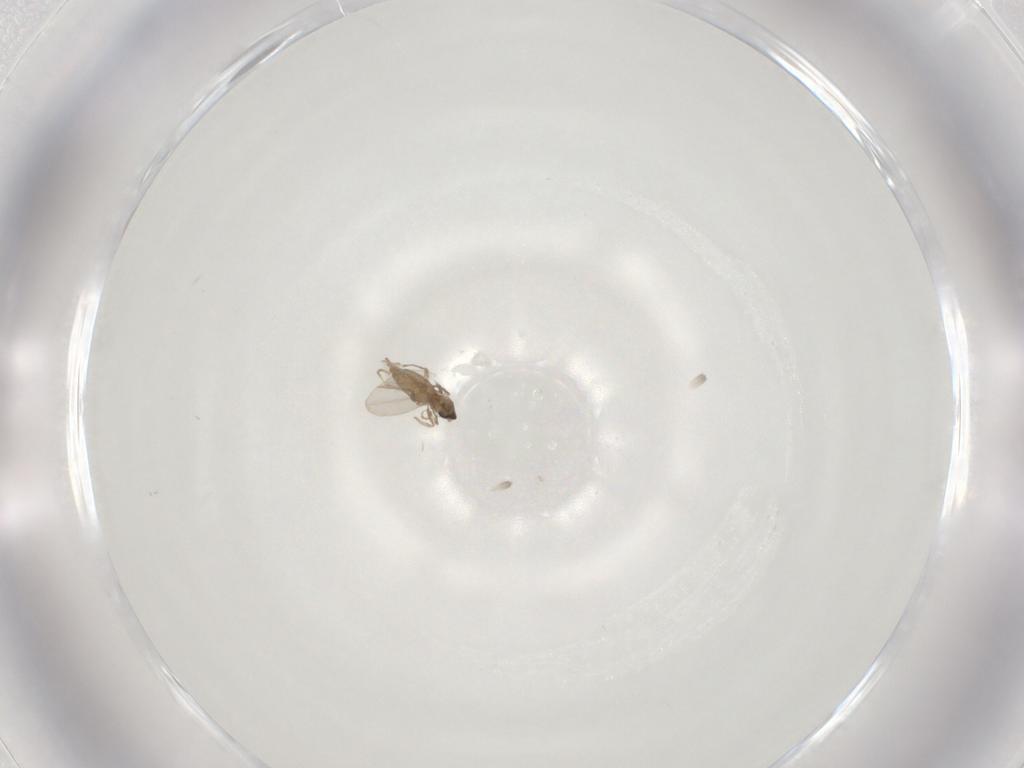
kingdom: Animalia
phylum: Arthropoda
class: Insecta
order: Diptera
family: Cecidomyiidae
